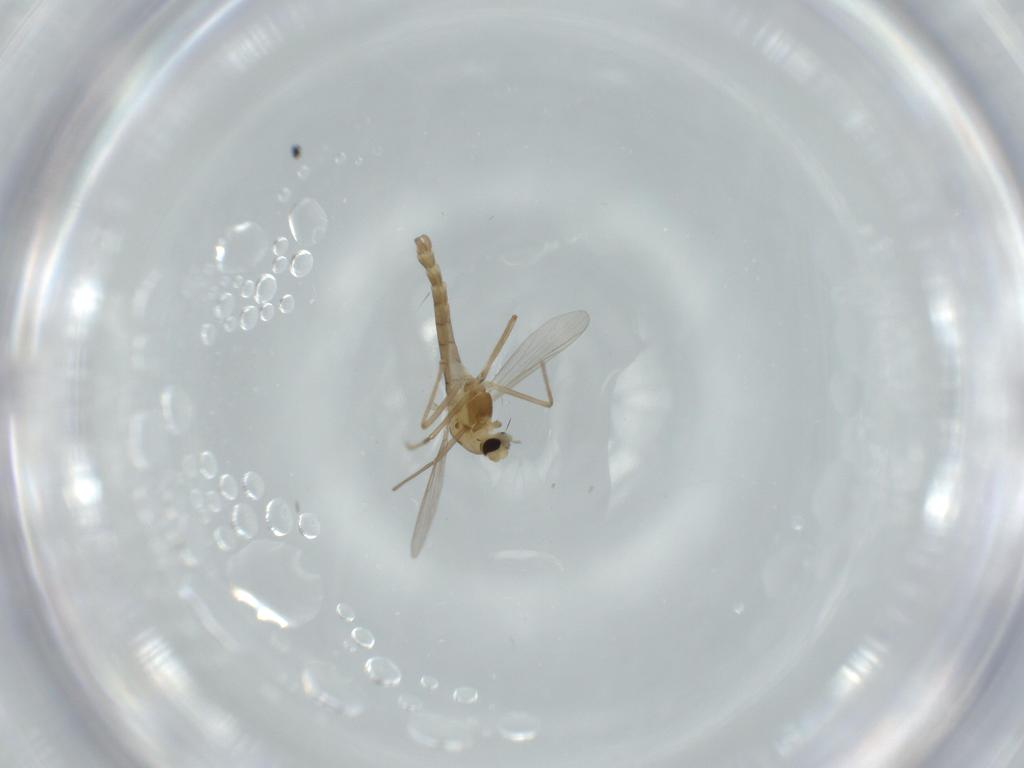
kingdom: Animalia
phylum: Arthropoda
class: Insecta
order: Diptera
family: Chironomidae
